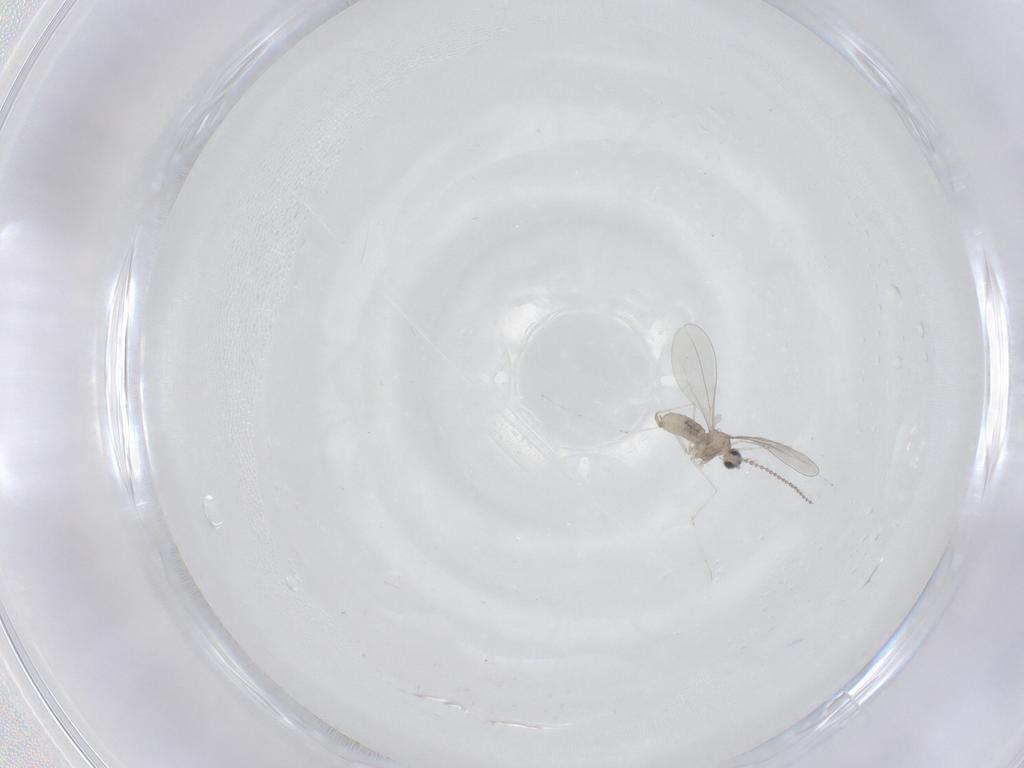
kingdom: Animalia
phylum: Arthropoda
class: Insecta
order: Diptera
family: Cecidomyiidae
